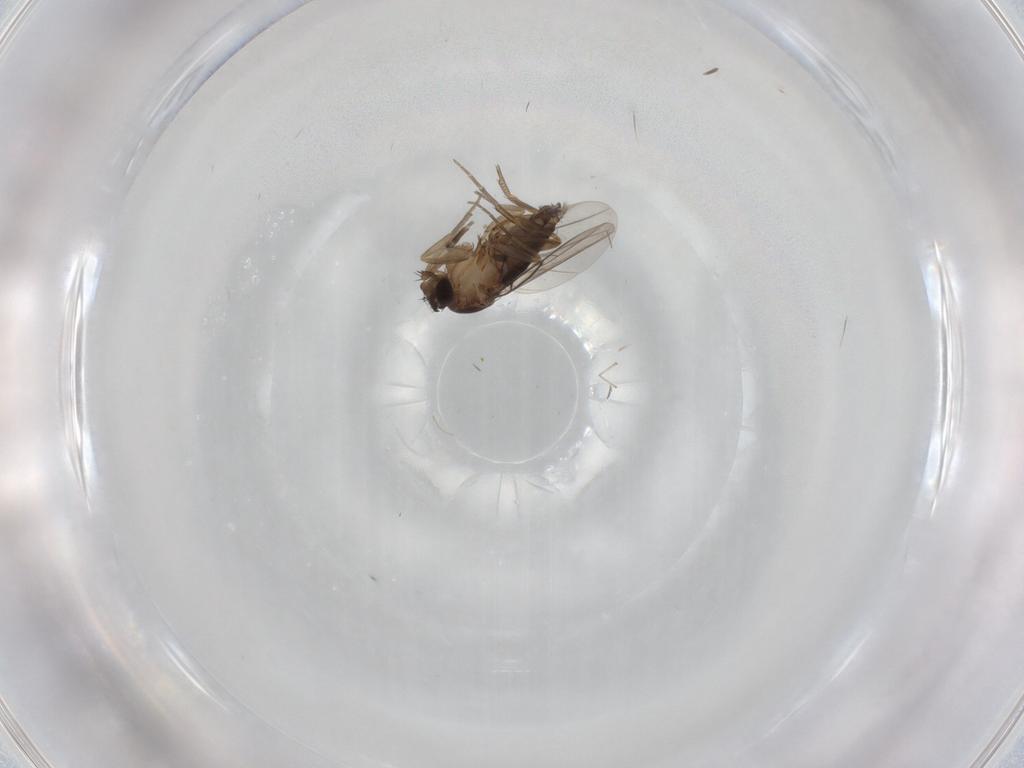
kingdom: Animalia
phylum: Arthropoda
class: Insecta
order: Diptera
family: Phoridae
